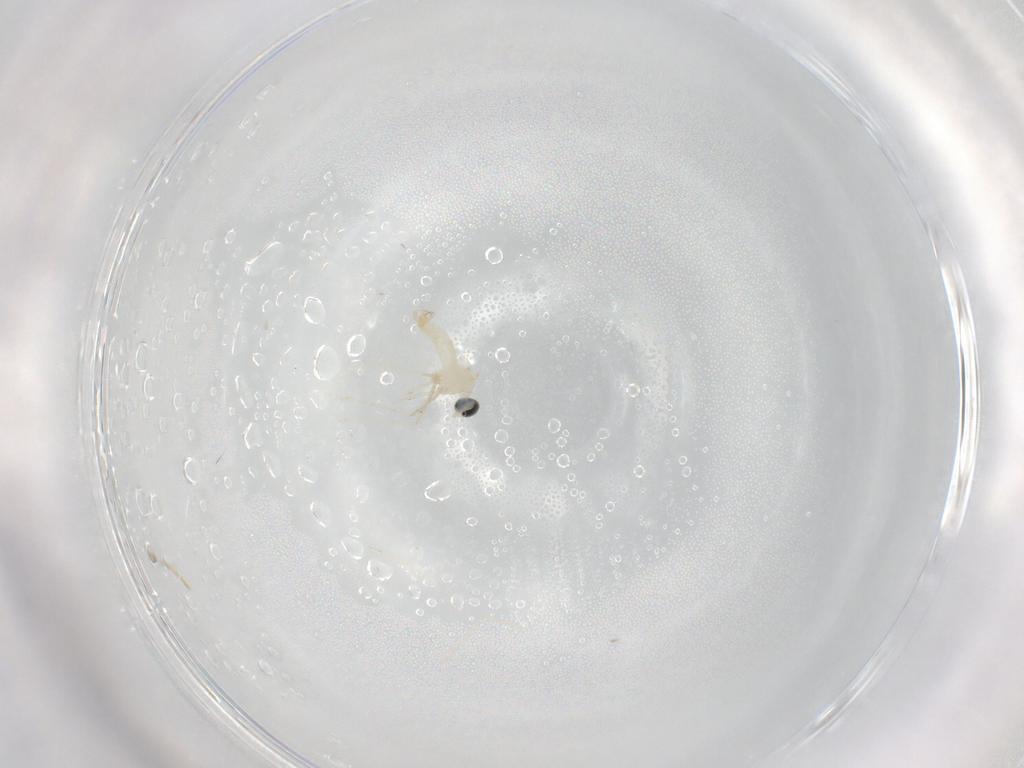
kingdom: Animalia
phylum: Arthropoda
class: Insecta
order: Diptera
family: Cecidomyiidae
